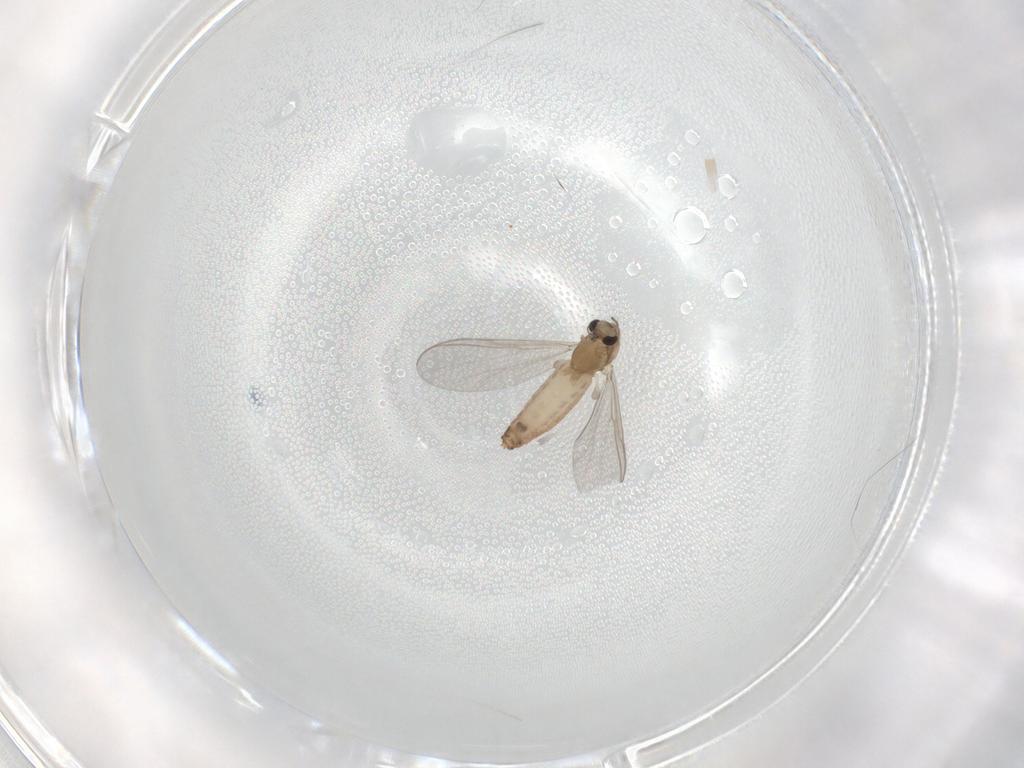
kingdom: Animalia
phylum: Arthropoda
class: Insecta
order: Diptera
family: Chironomidae
